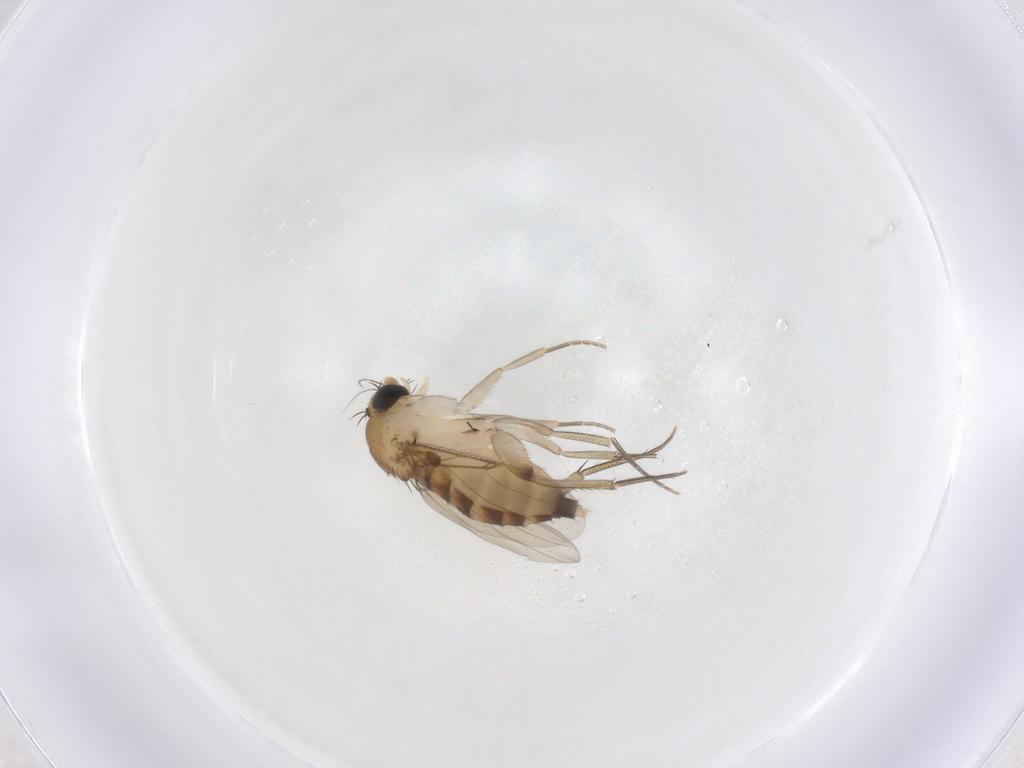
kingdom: Animalia
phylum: Arthropoda
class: Insecta
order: Diptera
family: Phoridae
